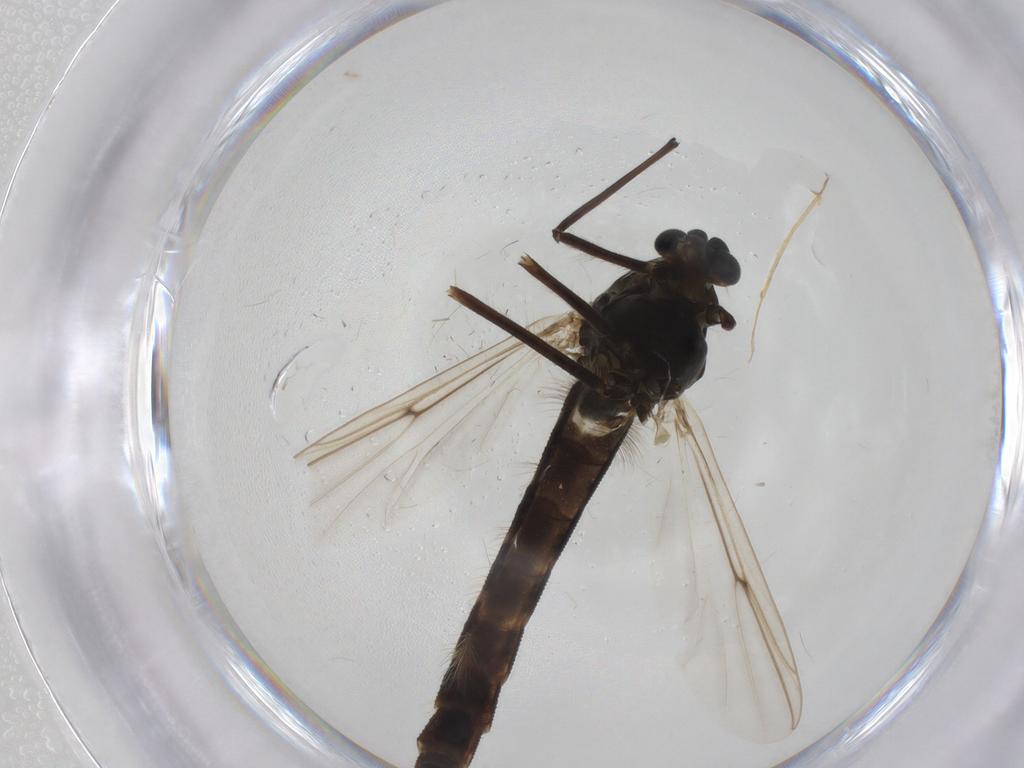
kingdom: Animalia
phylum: Arthropoda
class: Insecta
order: Diptera
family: Chironomidae
